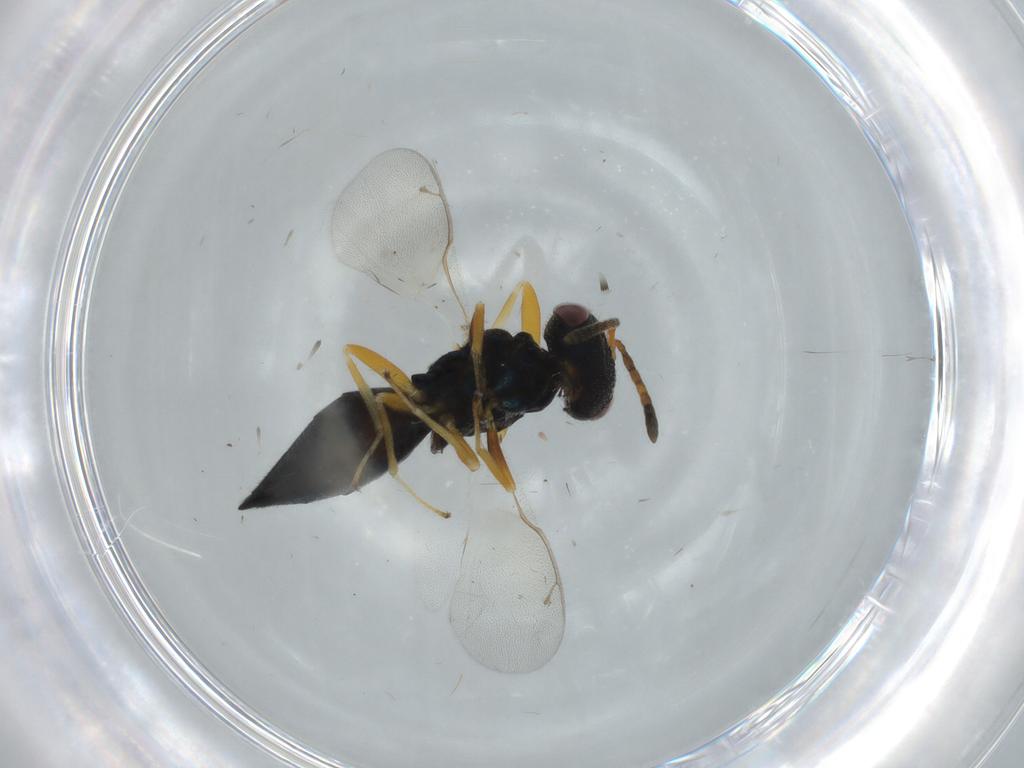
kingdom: Animalia
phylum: Arthropoda
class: Insecta
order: Hymenoptera
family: Pteromalidae
